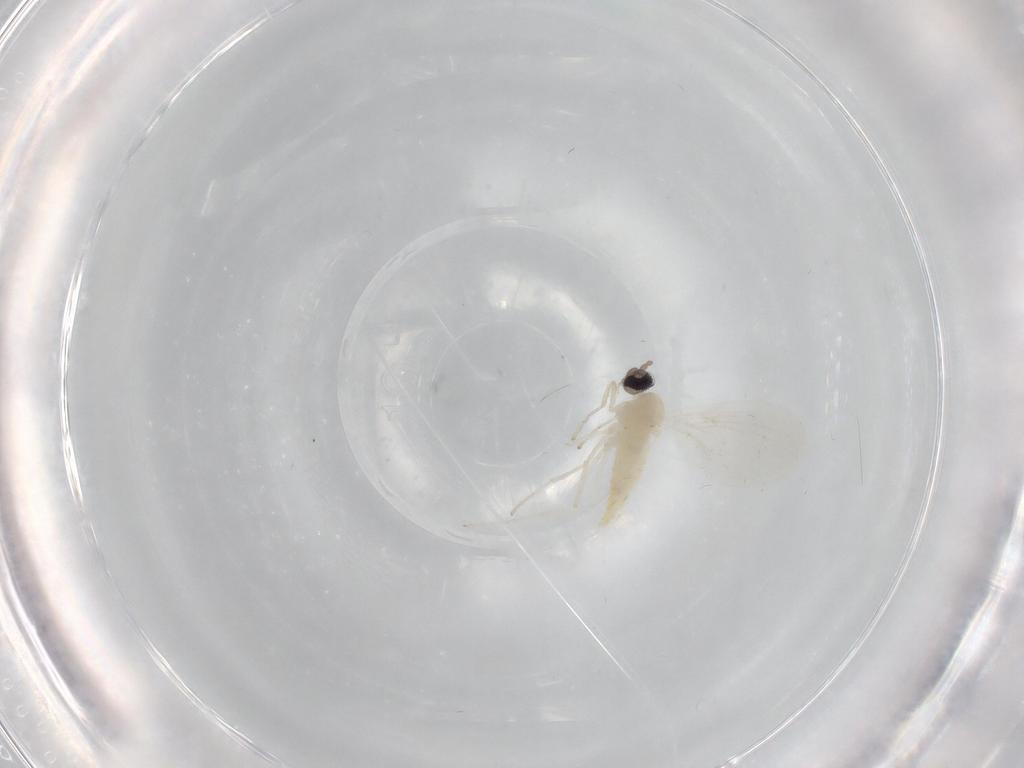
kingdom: Animalia
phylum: Arthropoda
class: Insecta
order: Diptera
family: Cecidomyiidae
